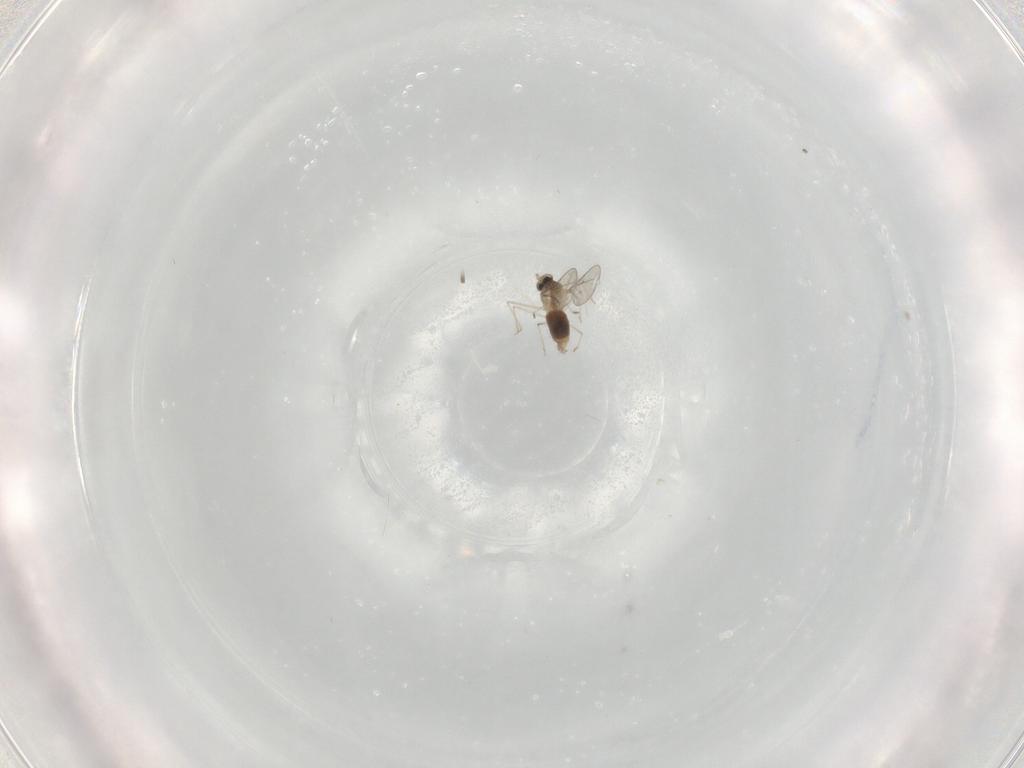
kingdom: Animalia
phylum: Arthropoda
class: Insecta
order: Diptera
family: Cecidomyiidae
